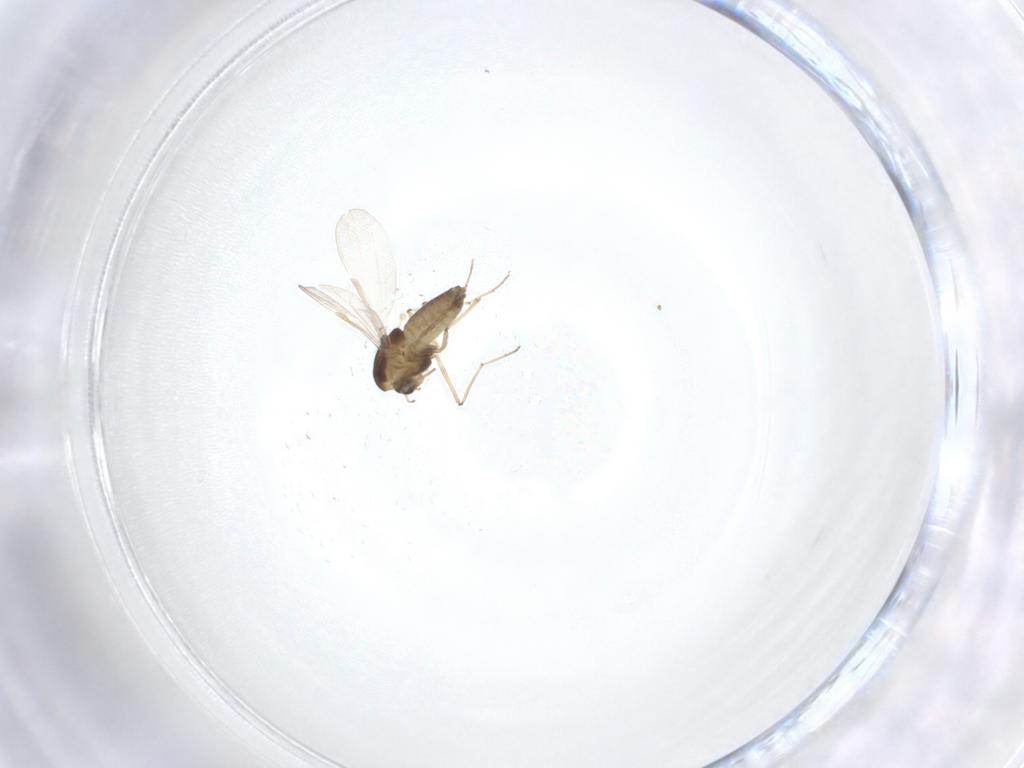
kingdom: Animalia
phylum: Arthropoda
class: Insecta
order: Diptera
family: Chironomidae
